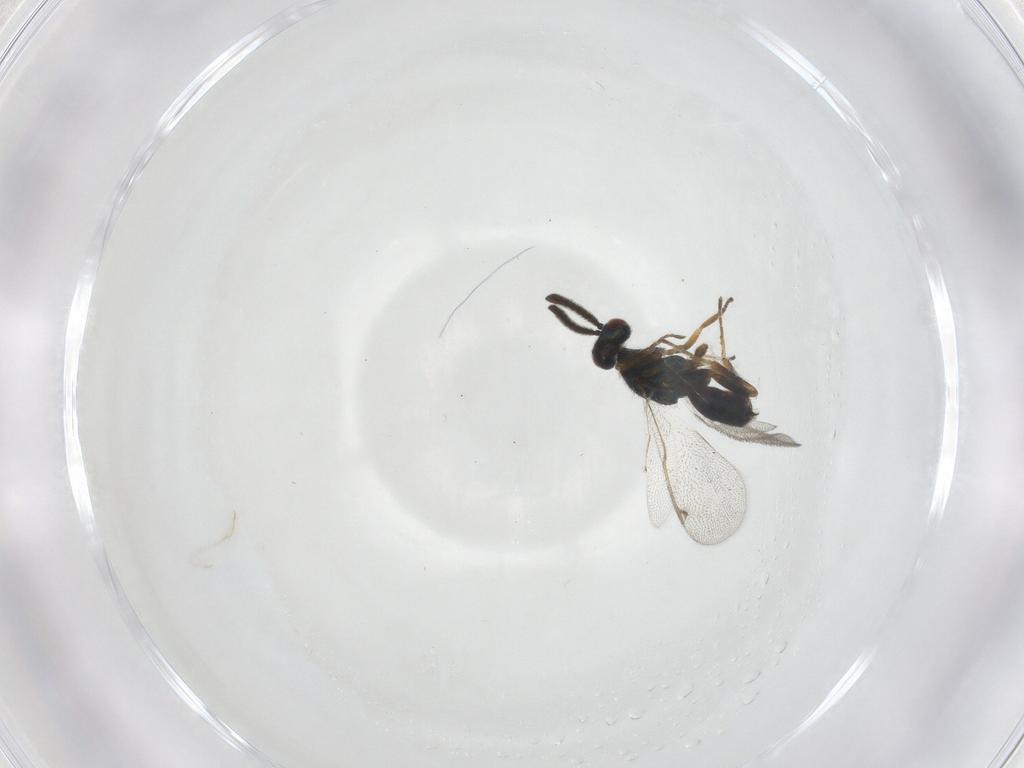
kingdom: Animalia
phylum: Arthropoda
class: Insecta
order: Hymenoptera
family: Torymidae
